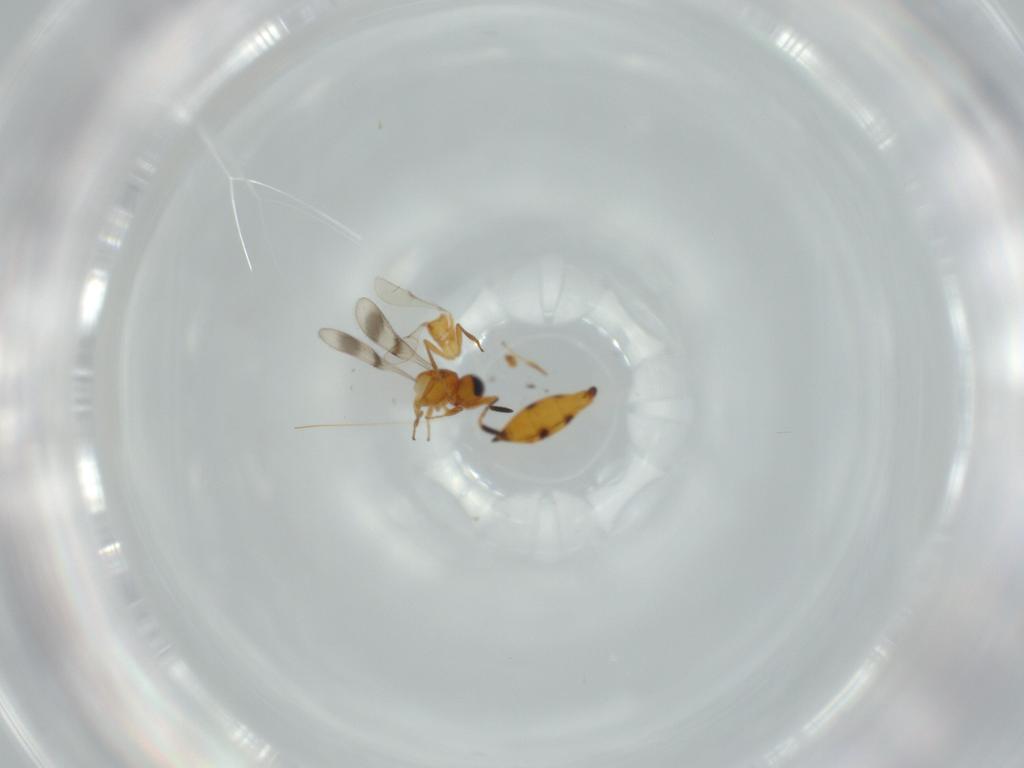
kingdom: Animalia
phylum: Arthropoda
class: Insecta
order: Hymenoptera
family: Scelionidae
